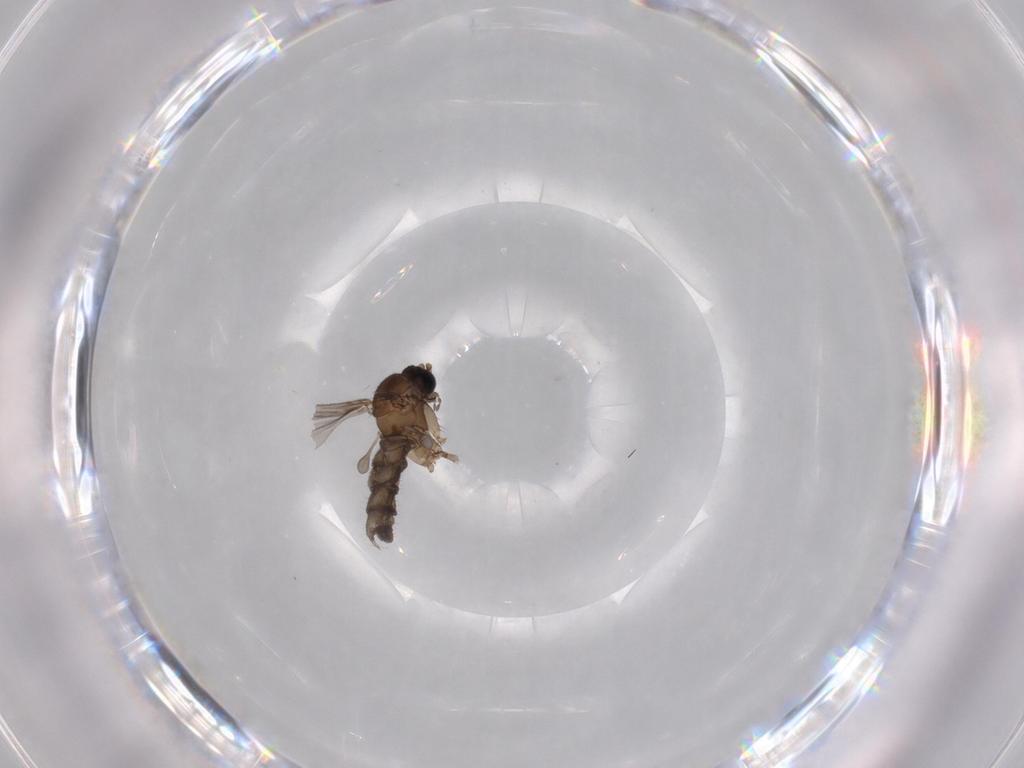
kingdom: Animalia
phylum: Arthropoda
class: Insecta
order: Diptera
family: Sciaridae
